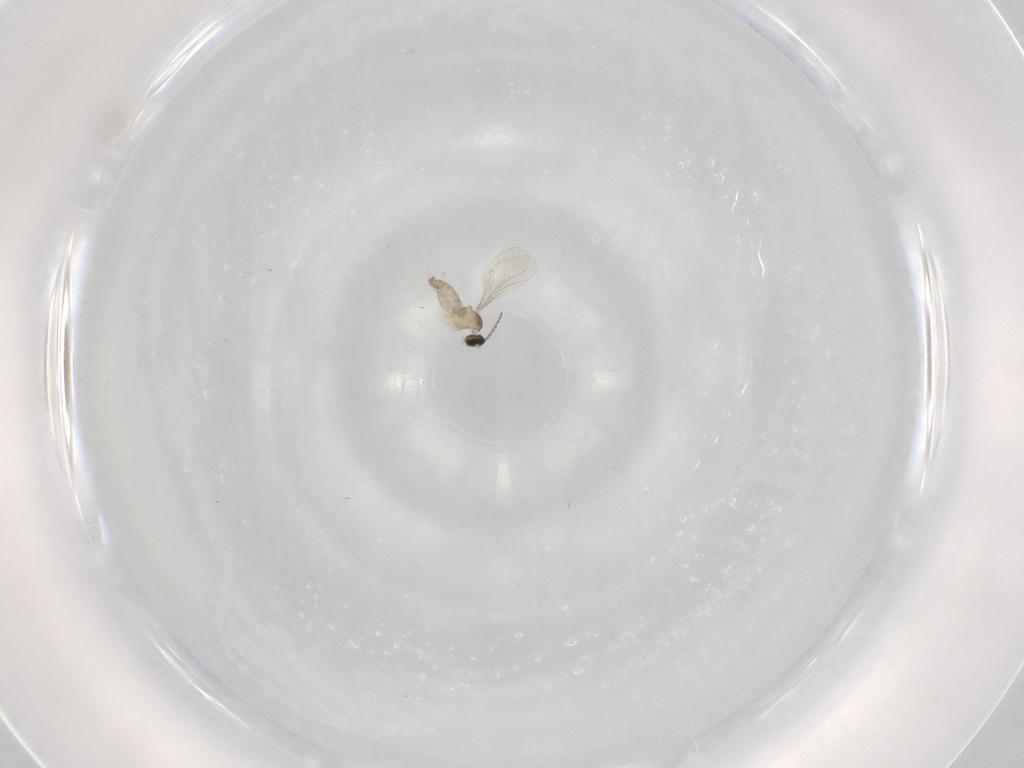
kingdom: Animalia
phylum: Arthropoda
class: Insecta
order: Diptera
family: Cecidomyiidae
